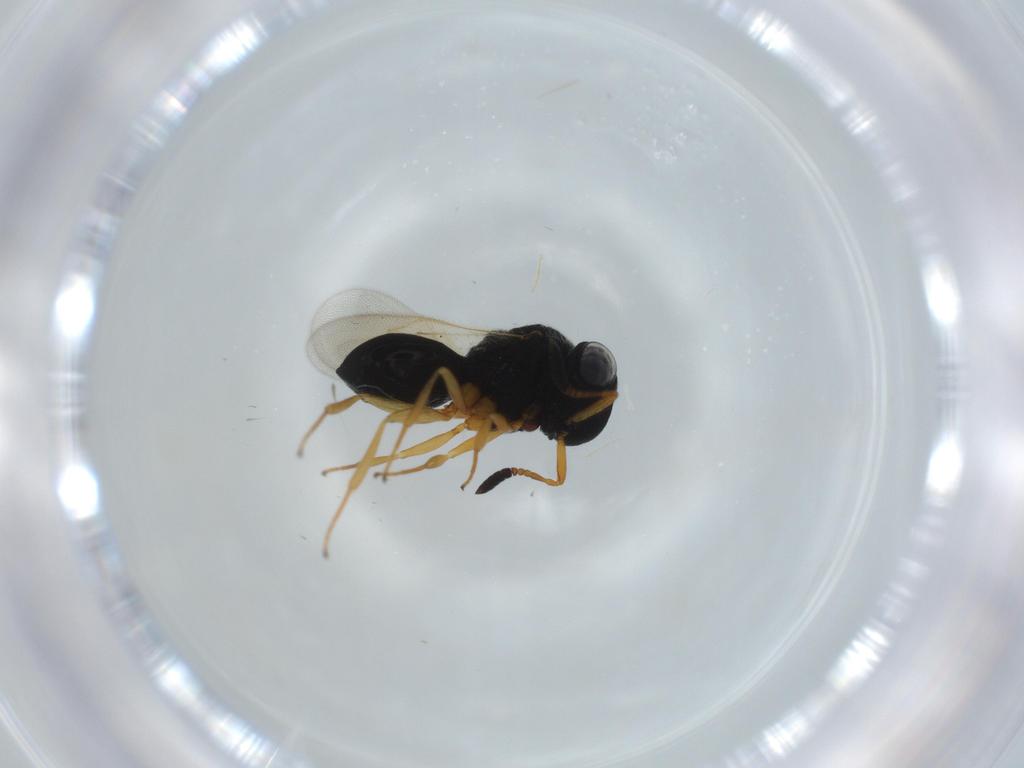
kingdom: Animalia
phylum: Arthropoda
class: Insecta
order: Hymenoptera
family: Scelionidae
